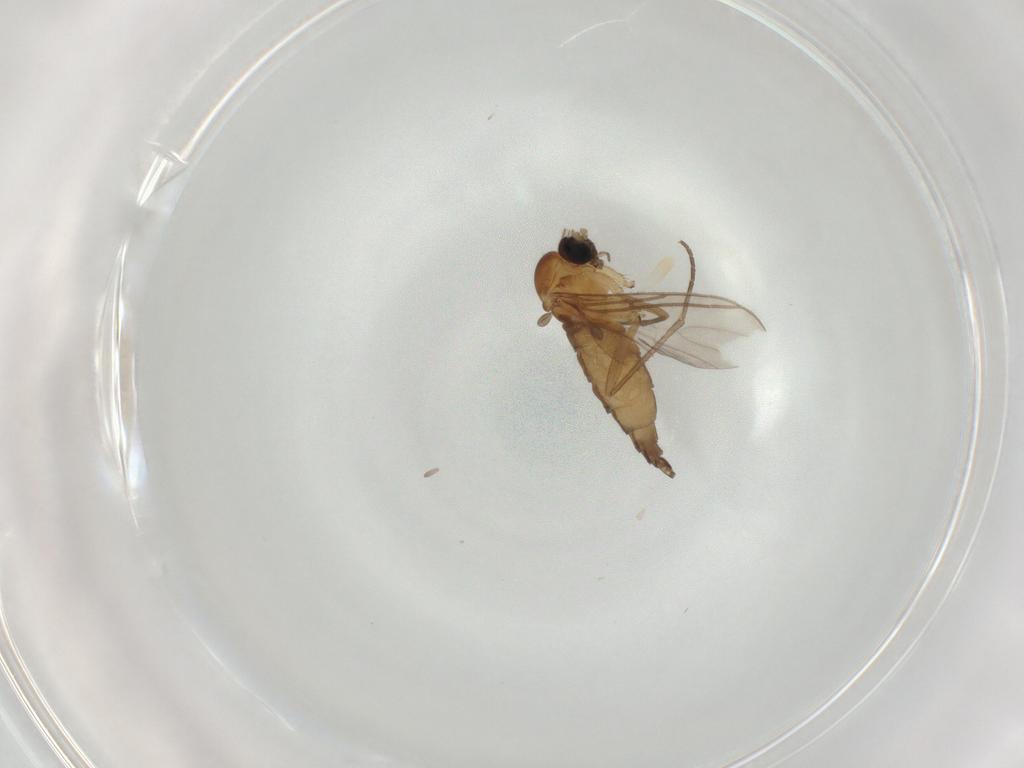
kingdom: Animalia
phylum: Arthropoda
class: Insecta
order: Diptera
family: Sciaridae
